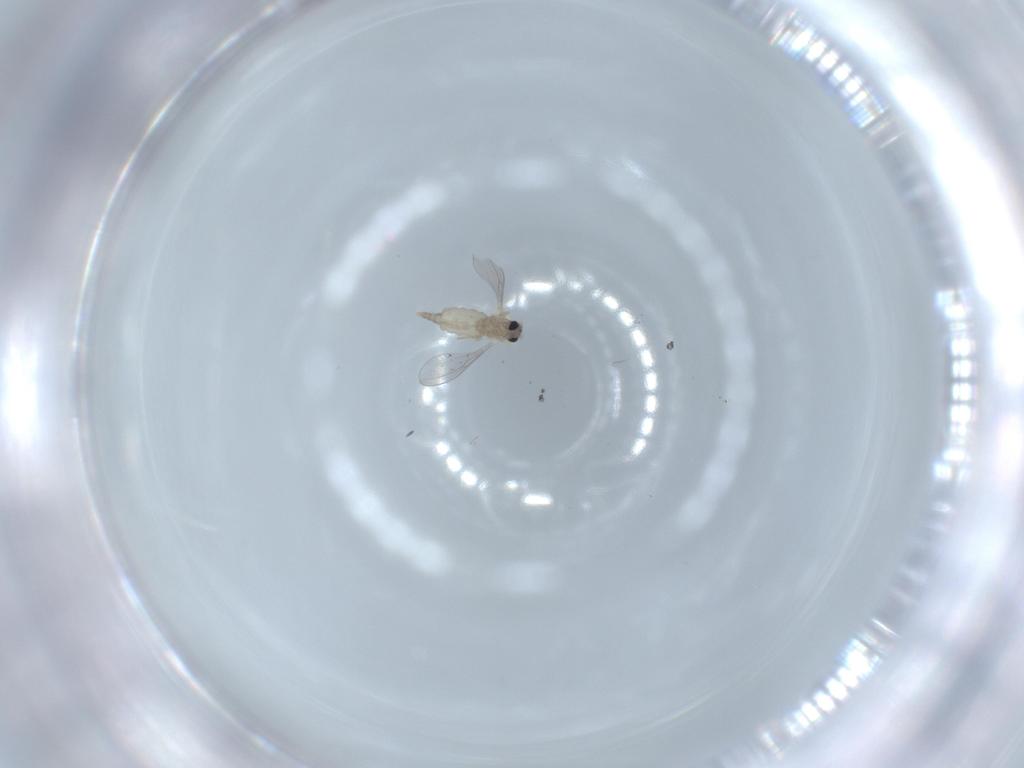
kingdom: Animalia
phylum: Arthropoda
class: Insecta
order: Diptera
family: Cecidomyiidae
